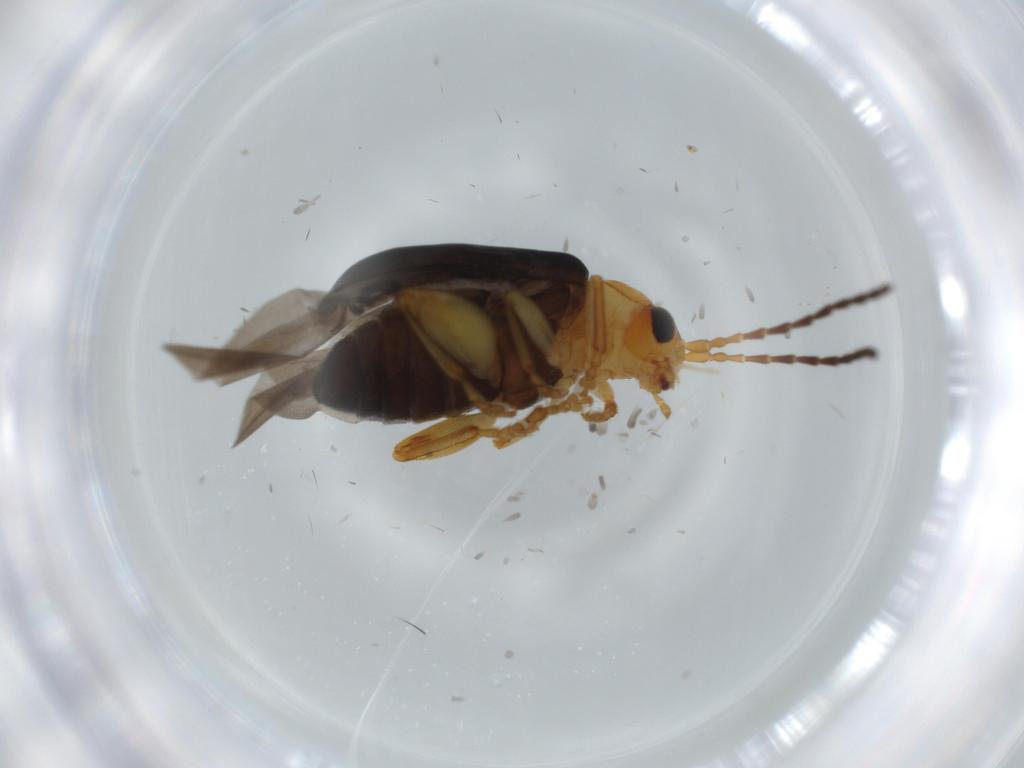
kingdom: Animalia
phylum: Arthropoda
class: Insecta
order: Coleoptera
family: Chrysomelidae
